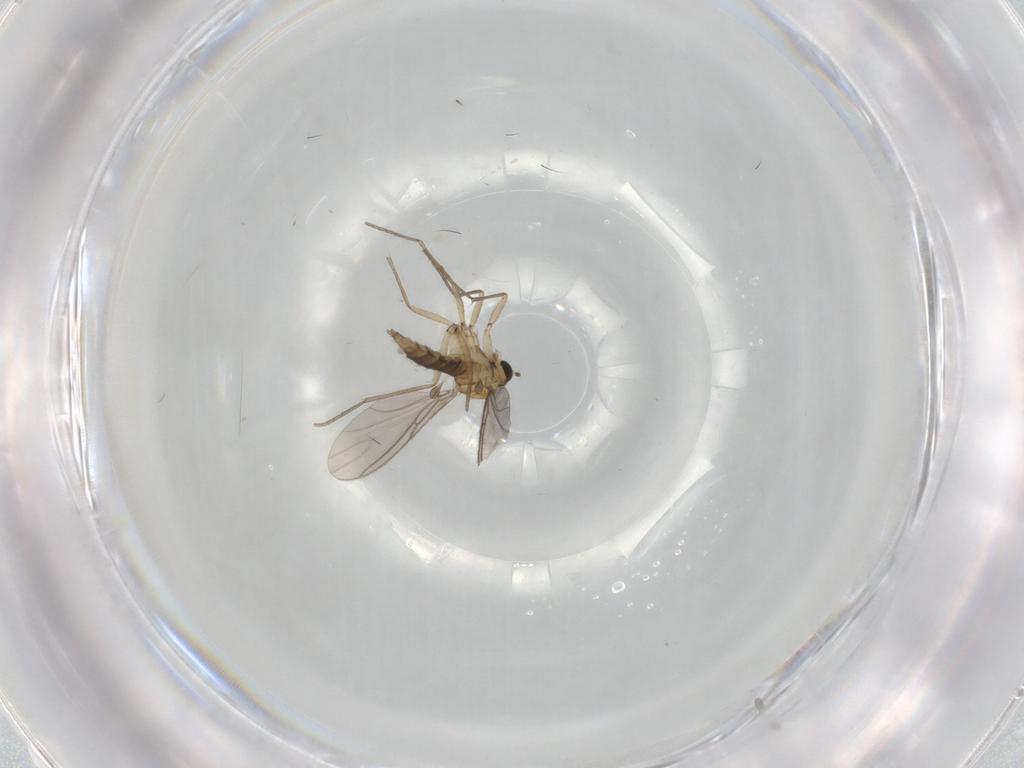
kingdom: Animalia
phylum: Arthropoda
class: Insecta
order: Diptera
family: Sciaridae
